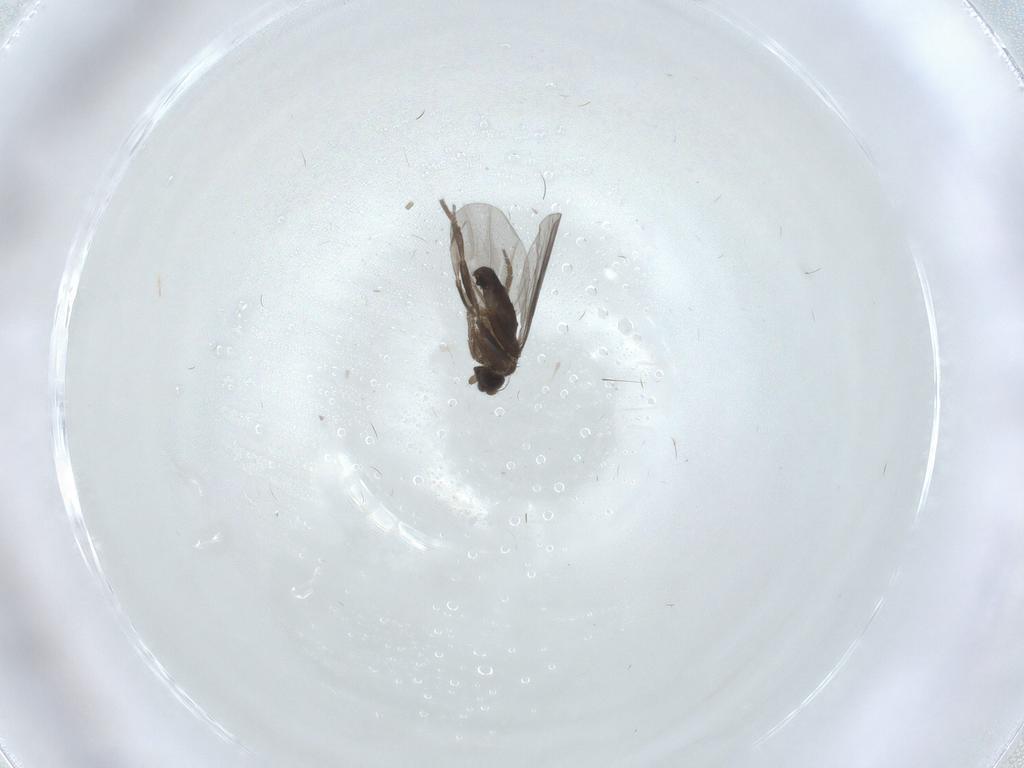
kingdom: Animalia
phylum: Arthropoda
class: Insecta
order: Diptera
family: Phoridae
